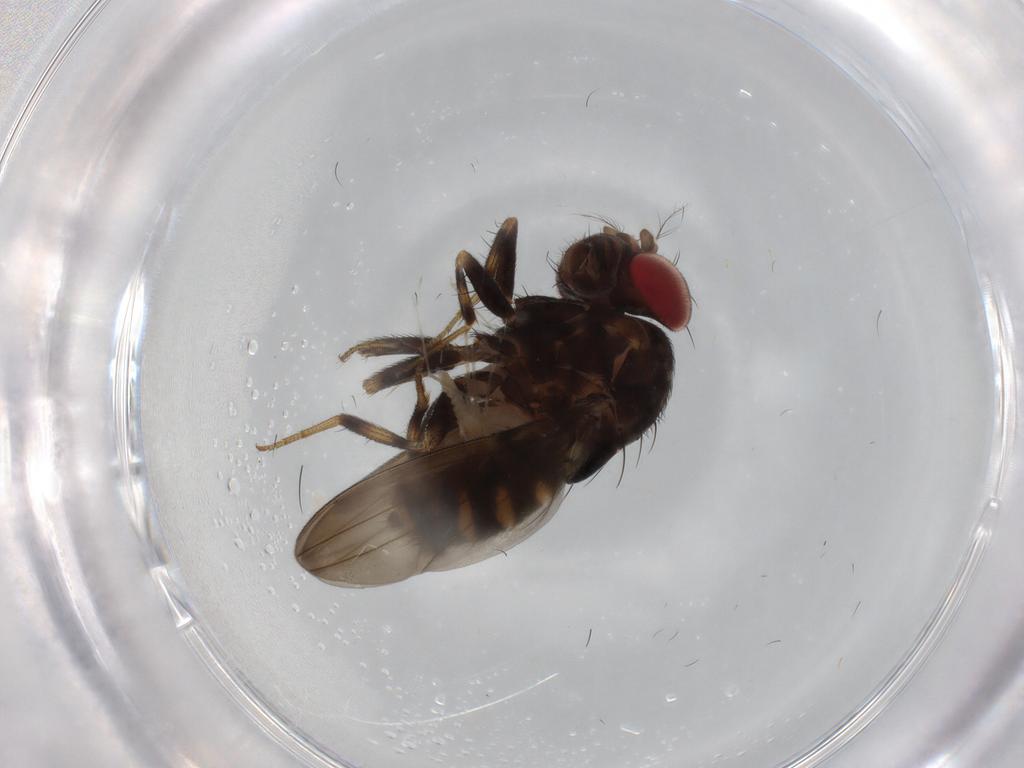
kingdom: Animalia
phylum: Arthropoda
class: Insecta
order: Diptera
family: Drosophilidae
